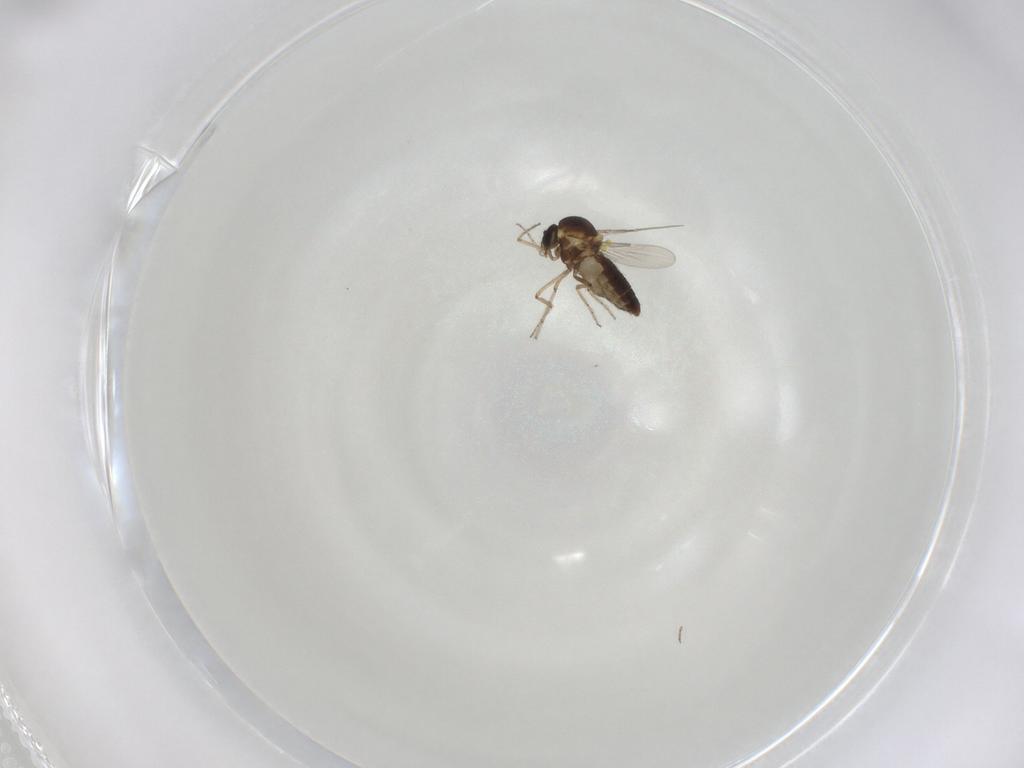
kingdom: Animalia
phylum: Arthropoda
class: Insecta
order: Diptera
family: Ceratopogonidae
